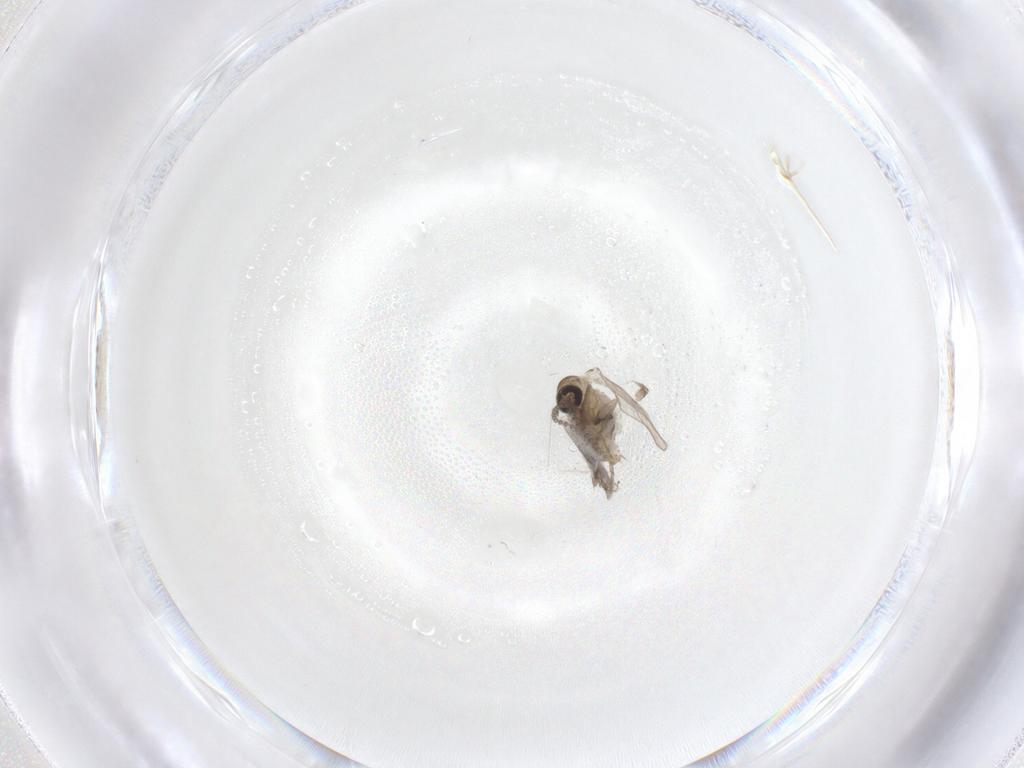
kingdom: Animalia
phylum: Arthropoda
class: Insecta
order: Diptera
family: Psychodidae
